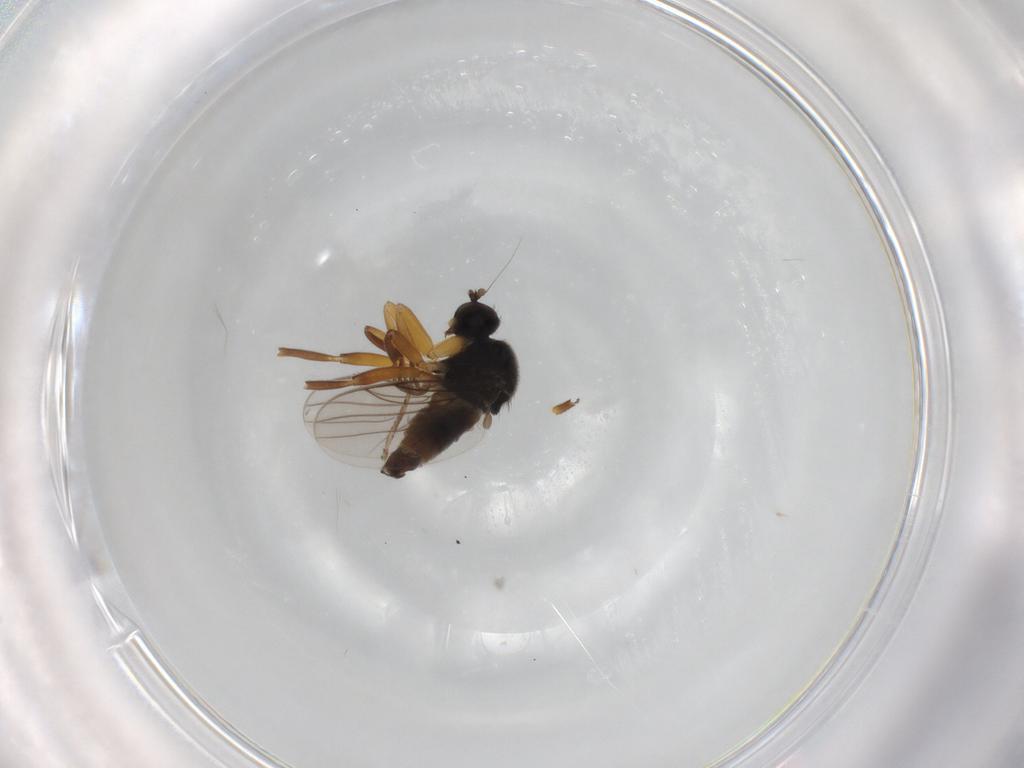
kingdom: Animalia
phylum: Arthropoda
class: Insecta
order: Diptera
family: Hybotidae
